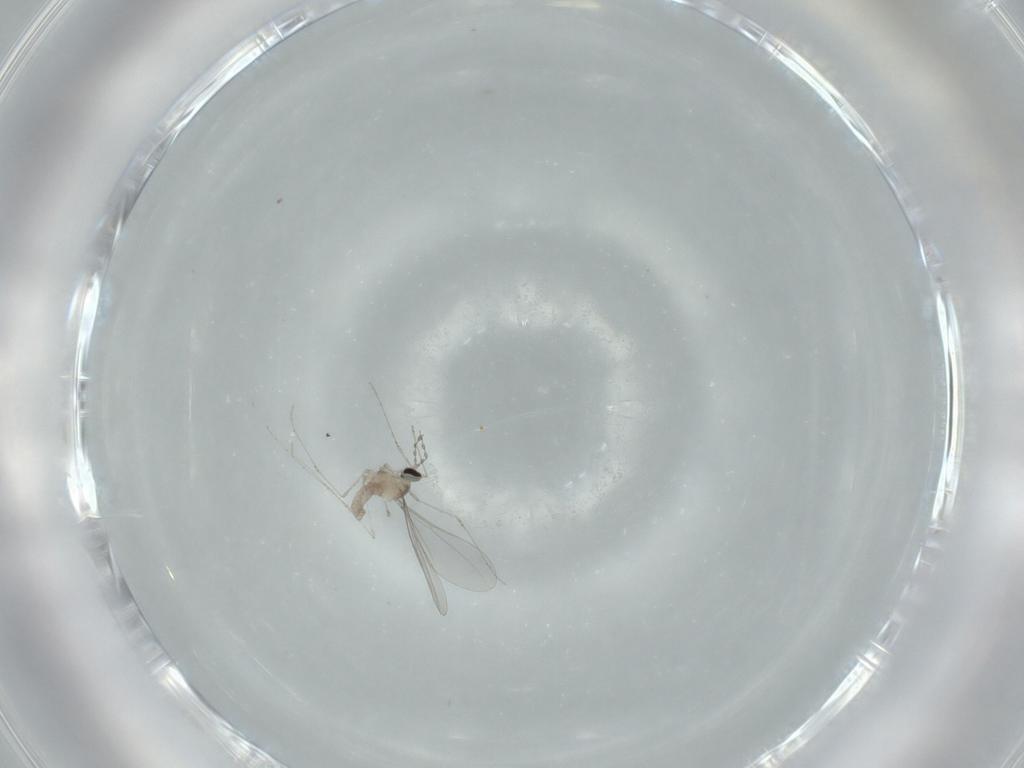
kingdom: Animalia
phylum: Arthropoda
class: Insecta
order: Diptera
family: Cecidomyiidae
